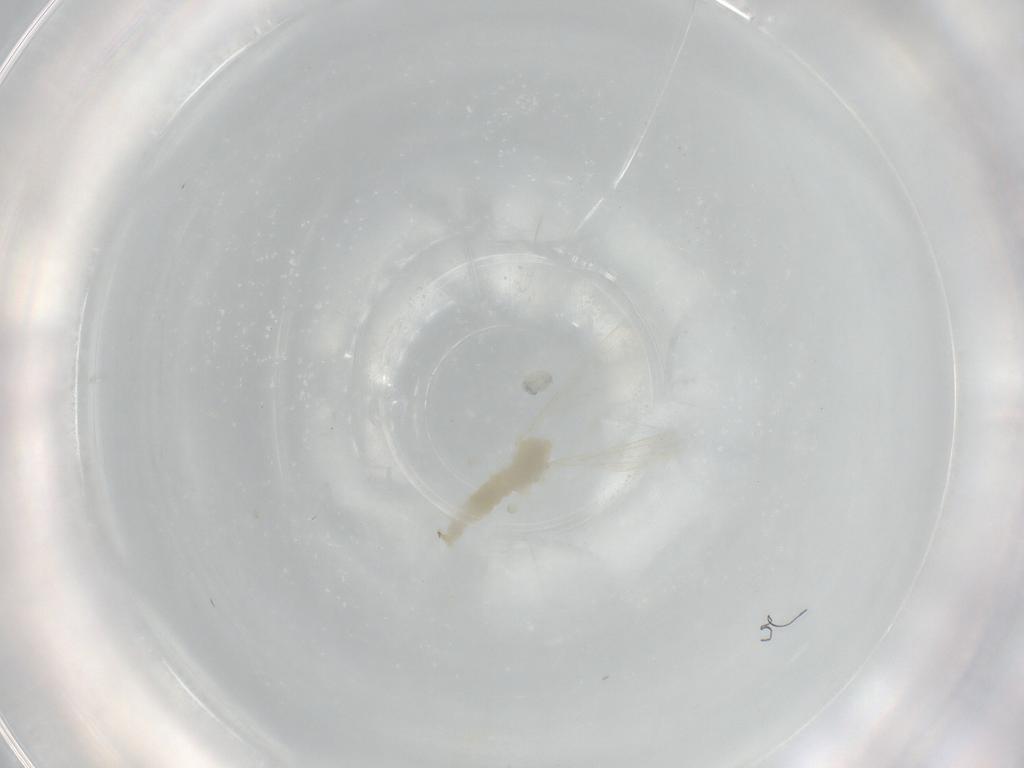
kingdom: Animalia
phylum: Arthropoda
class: Insecta
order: Diptera
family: Cecidomyiidae
